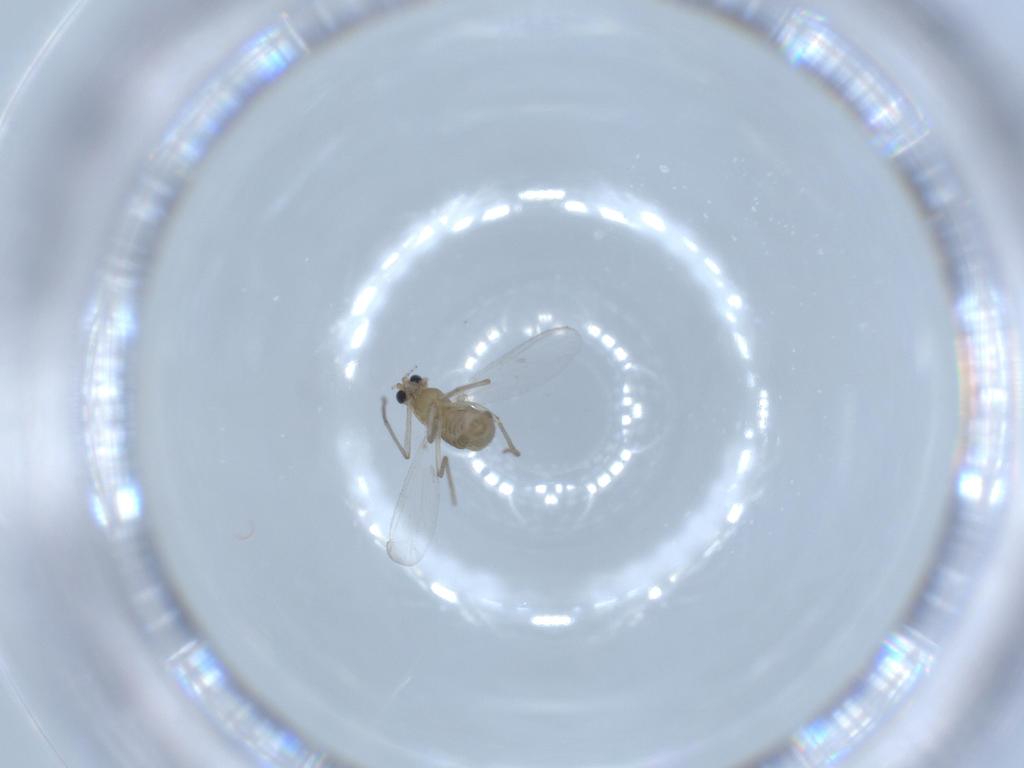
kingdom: Animalia
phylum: Arthropoda
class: Insecta
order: Diptera
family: Chironomidae
